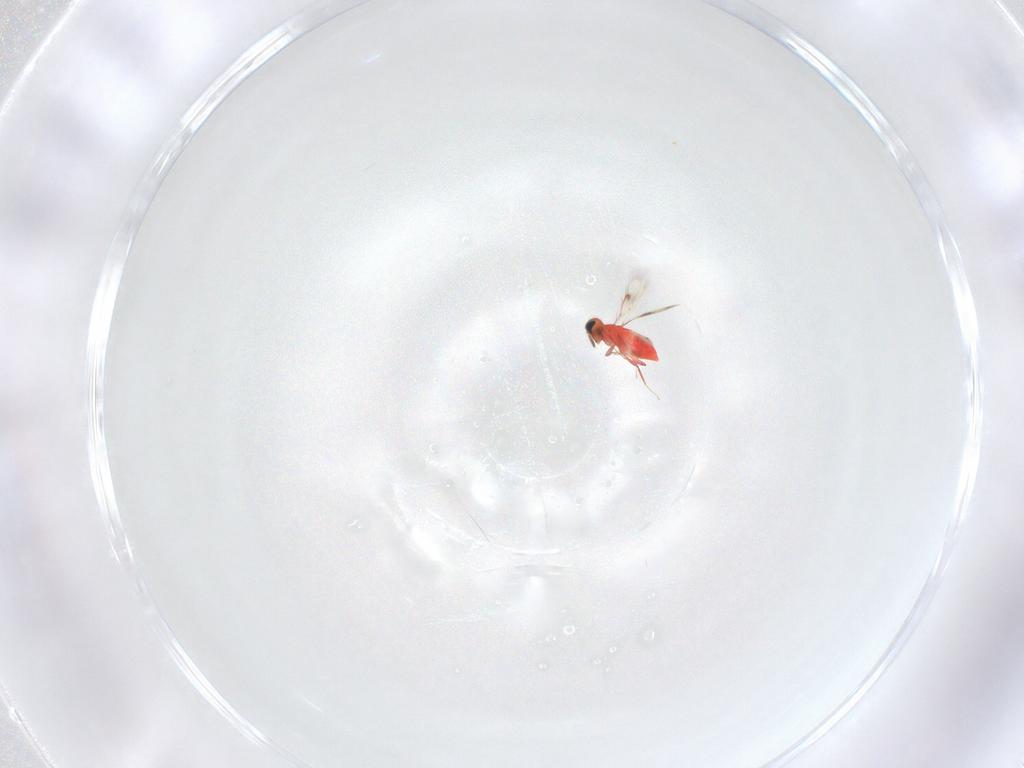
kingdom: Animalia
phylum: Arthropoda
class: Insecta
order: Hymenoptera
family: Trichogrammatidae
